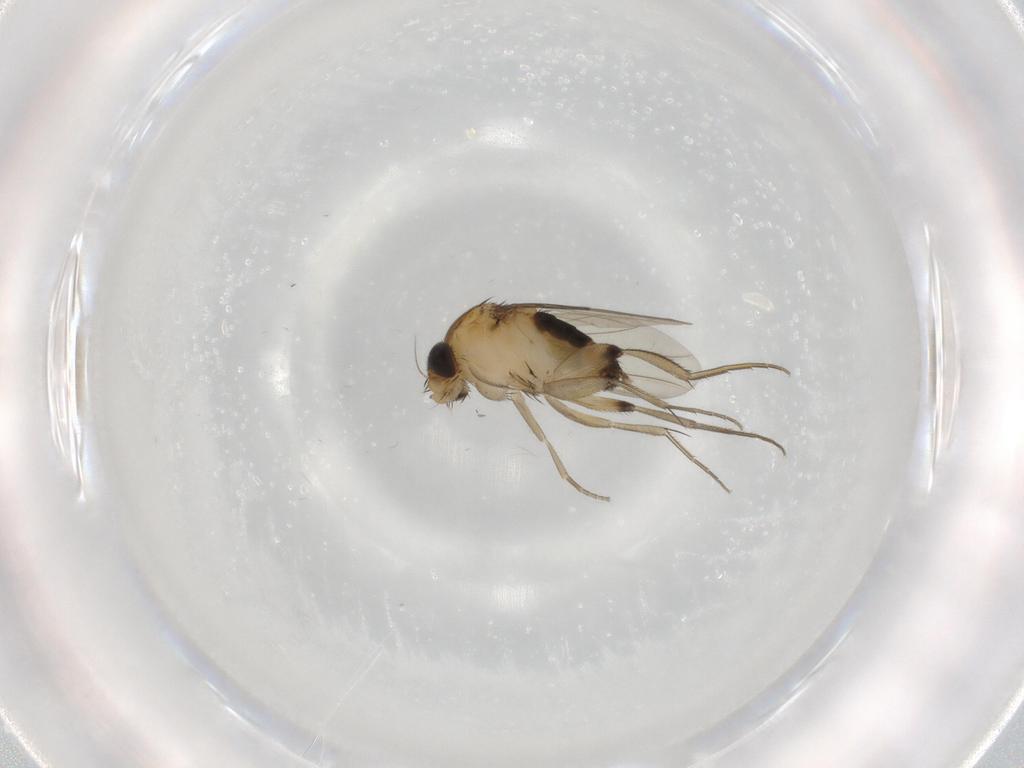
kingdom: Animalia
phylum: Arthropoda
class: Insecta
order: Diptera
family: Phoridae
